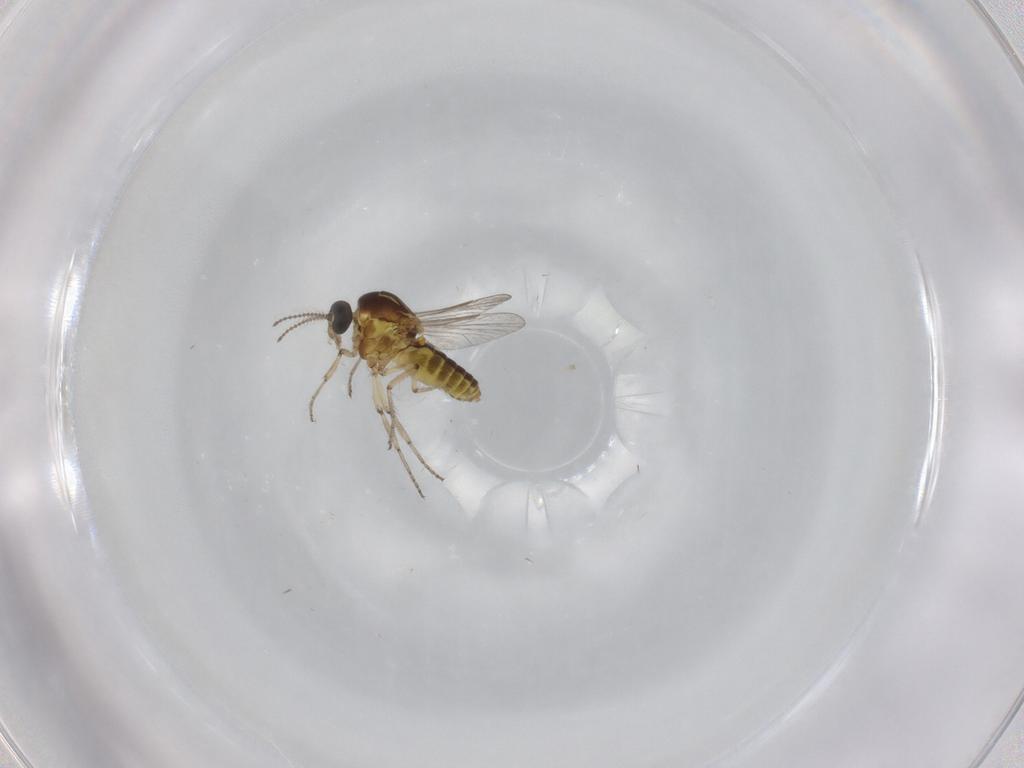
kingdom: Animalia
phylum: Arthropoda
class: Insecta
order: Diptera
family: Ceratopogonidae
